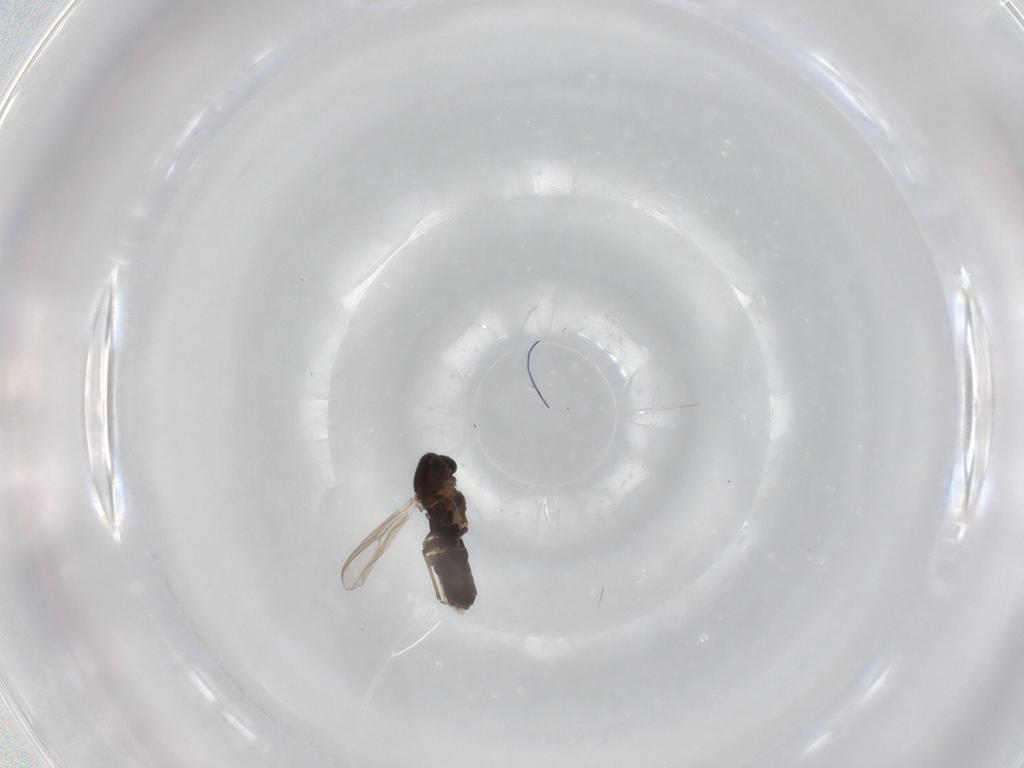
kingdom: Animalia
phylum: Arthropoda
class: Insecta
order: Diptera
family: Chironomidae
